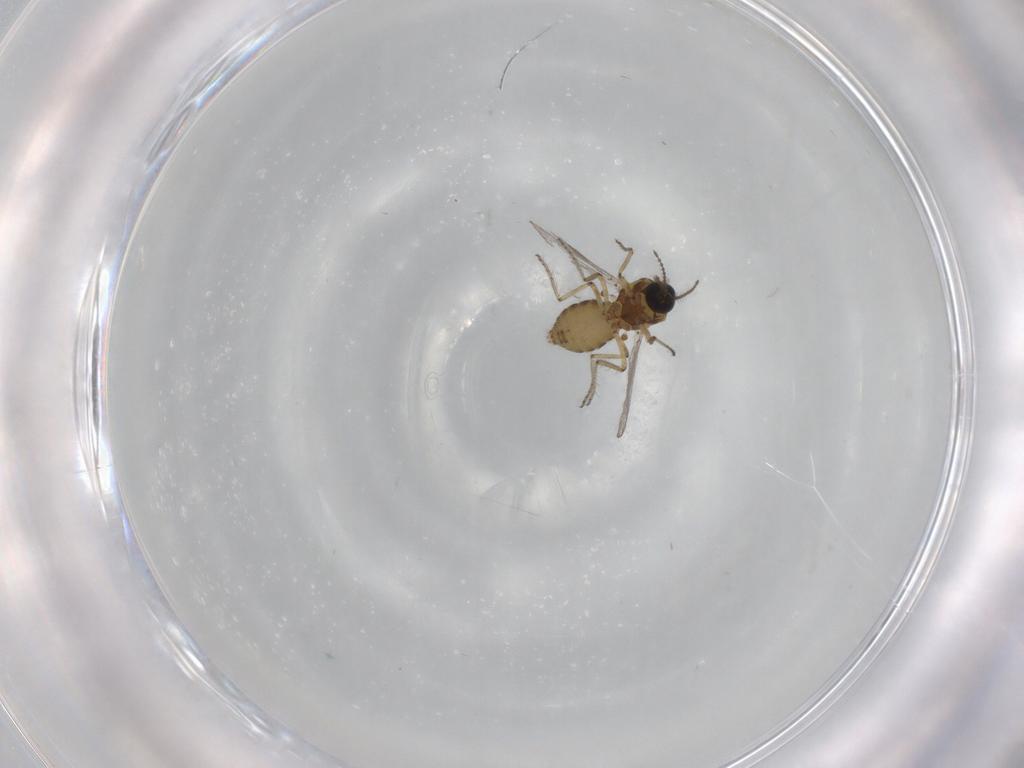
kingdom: Animalia
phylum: Arthropoda
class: Insecta
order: Diptera
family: Ceratopogonidae
